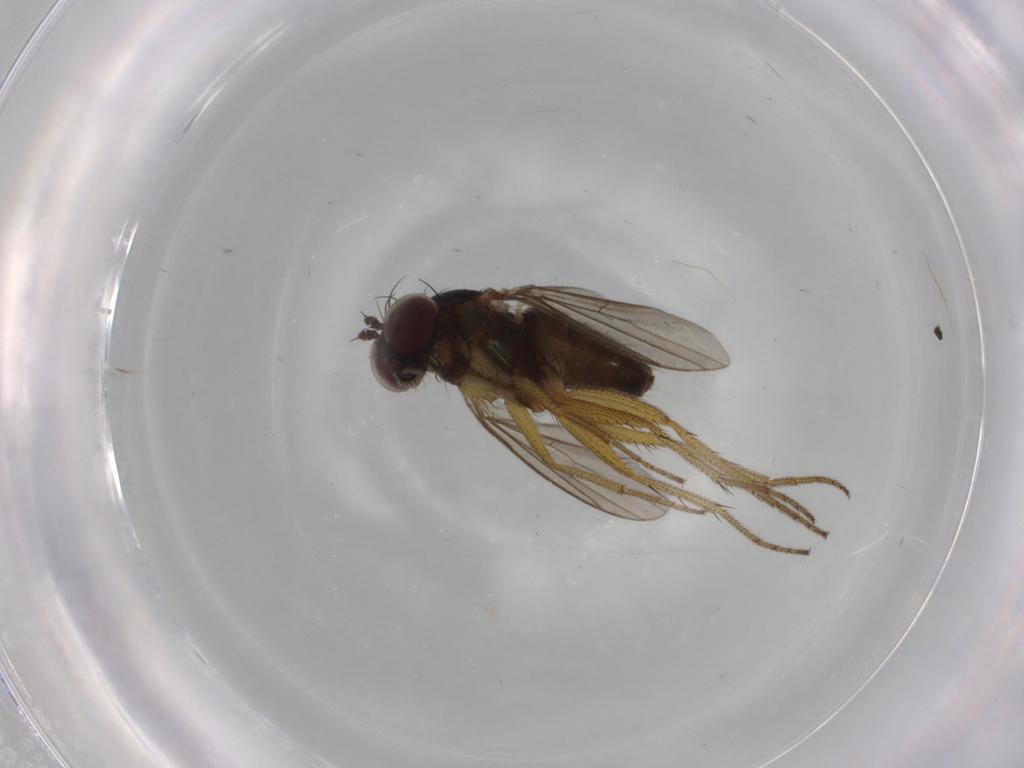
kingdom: Animalia
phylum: Arthropoda
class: Insecta
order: Diptera
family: Dolichopodidae
